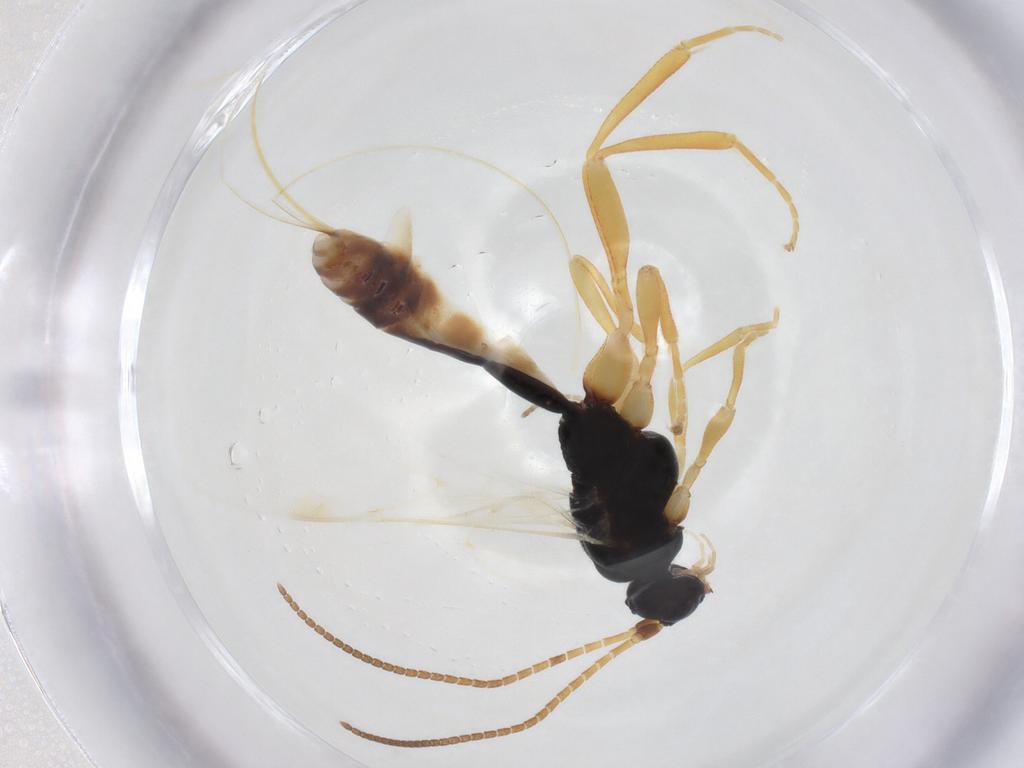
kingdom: Animalia
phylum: Arthropoda
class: Insecta
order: Hymenoptera
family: Braconidae
